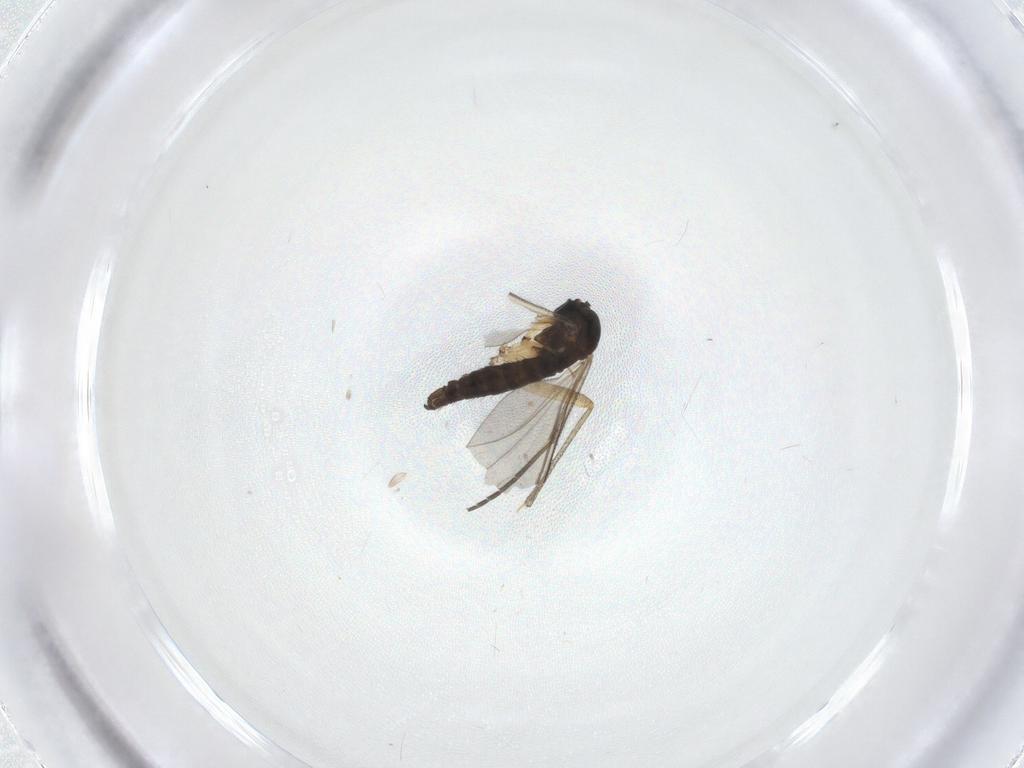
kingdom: Animalia
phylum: Arthropoda
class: Insecta
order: Diptera
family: Sciaridae
